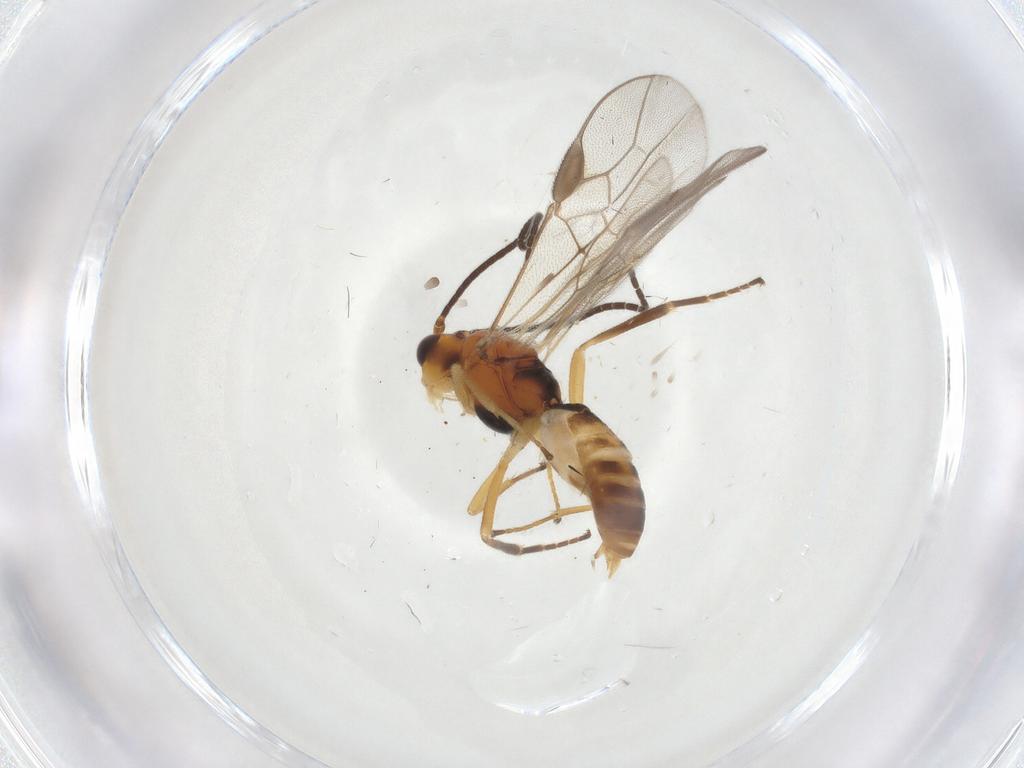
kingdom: Animalia
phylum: Arthropoda
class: Insecta
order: Hymenoptera
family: Braconidae
